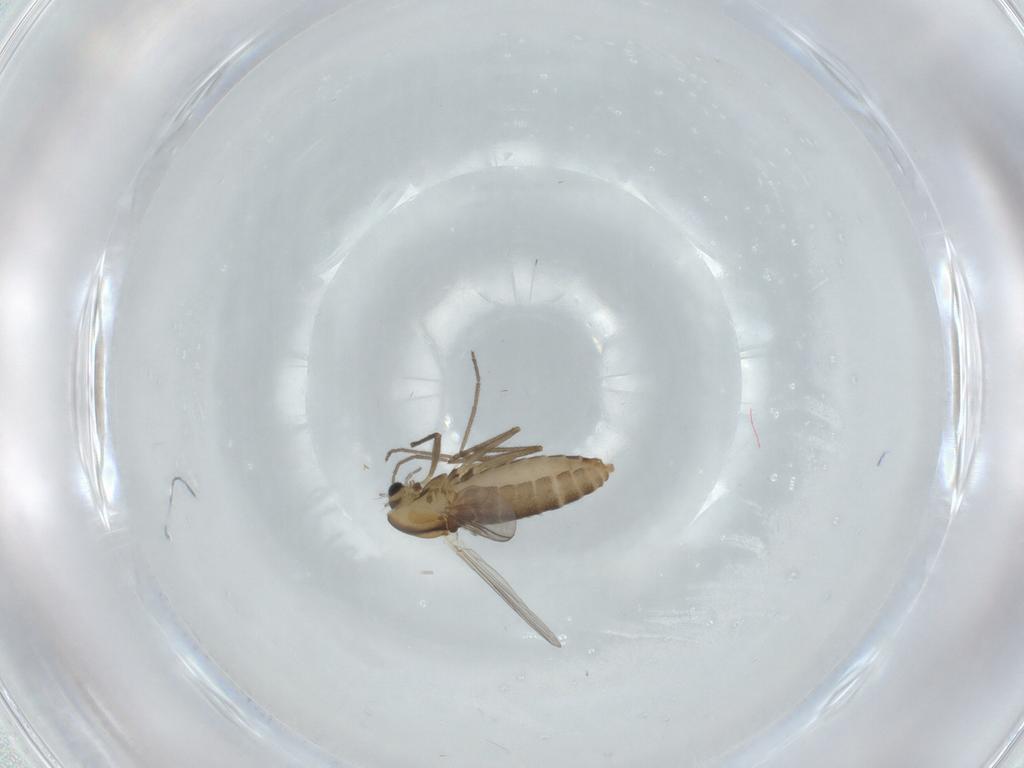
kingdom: Animalia
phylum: Arthropoda
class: Insecta
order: Diptera
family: Chironomidae
